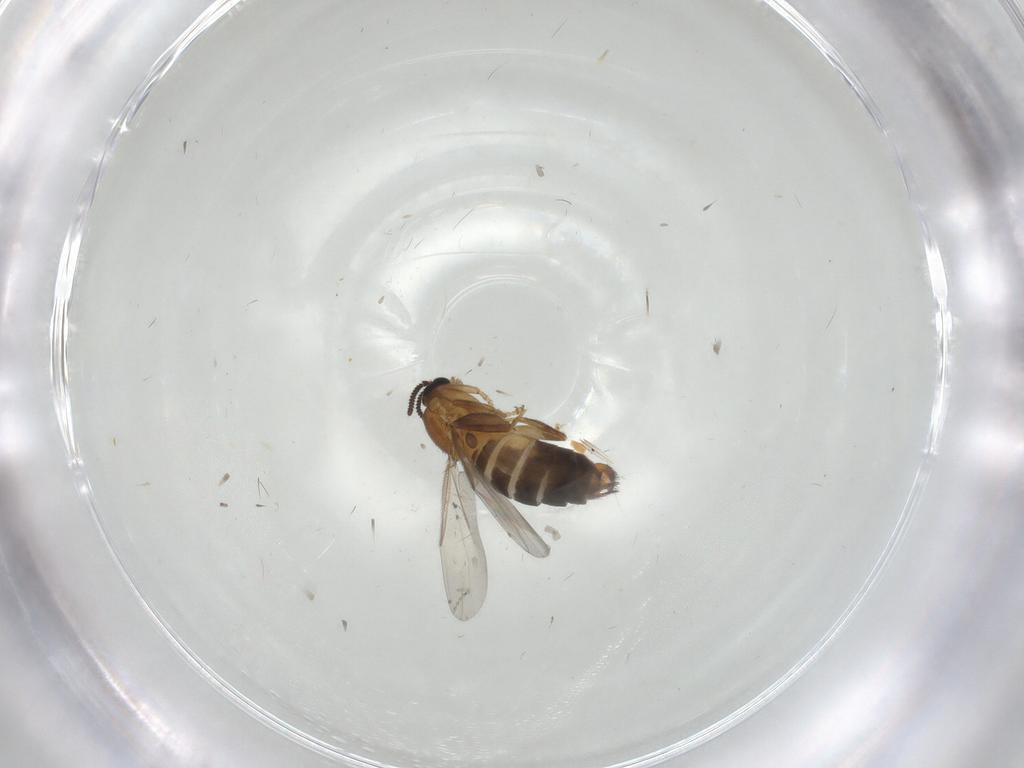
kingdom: Animalia
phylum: Arthropoda
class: Insecta
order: Diptera
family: Scatopsidae
